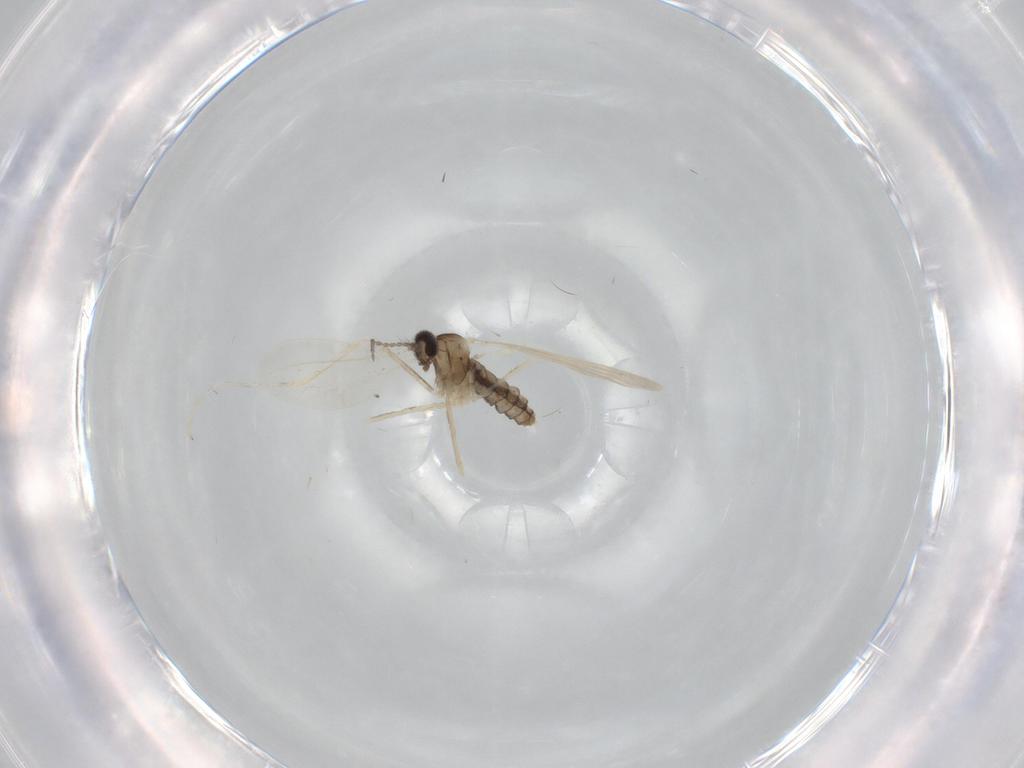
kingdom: Animalia
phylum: Arthropoda
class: Insecta
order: Diptera
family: Cecidomyiidae
